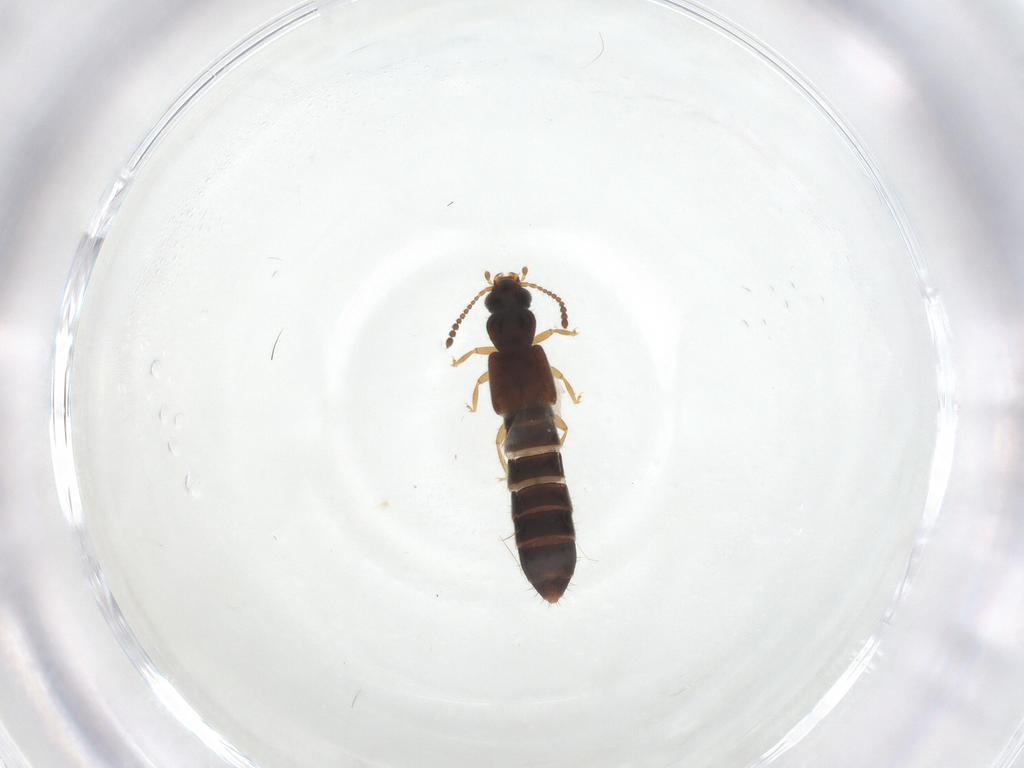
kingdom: Animalia
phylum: Arthropoda
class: Insecta
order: Coleoptera
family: Staphylinidae
